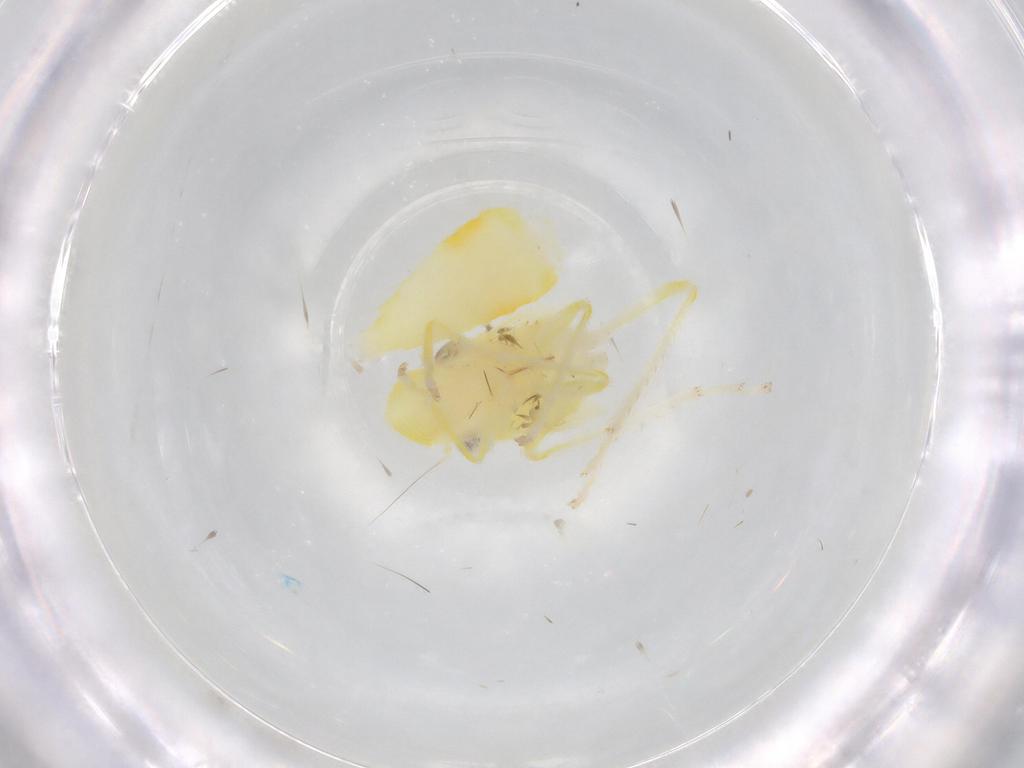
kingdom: Animalia
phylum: Arthropoda
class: Insecta
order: Hemiptera
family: Cicadellidae
